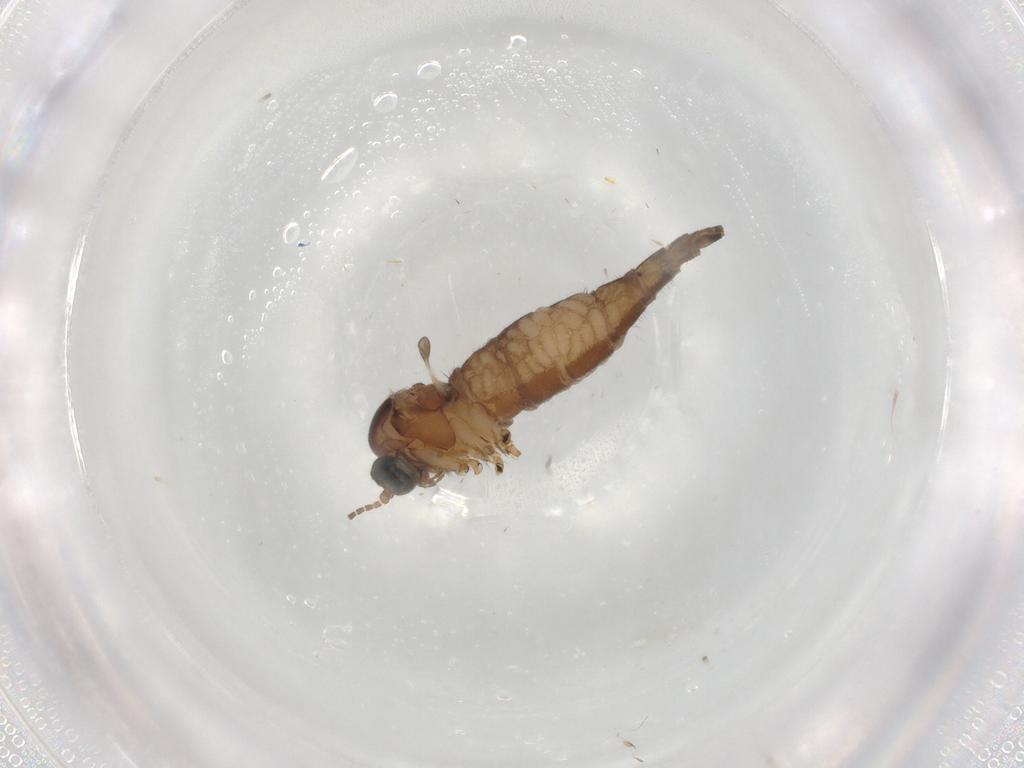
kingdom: Animalia
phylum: Arthropoda
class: Insecta
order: Diptera
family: Sciaridae
